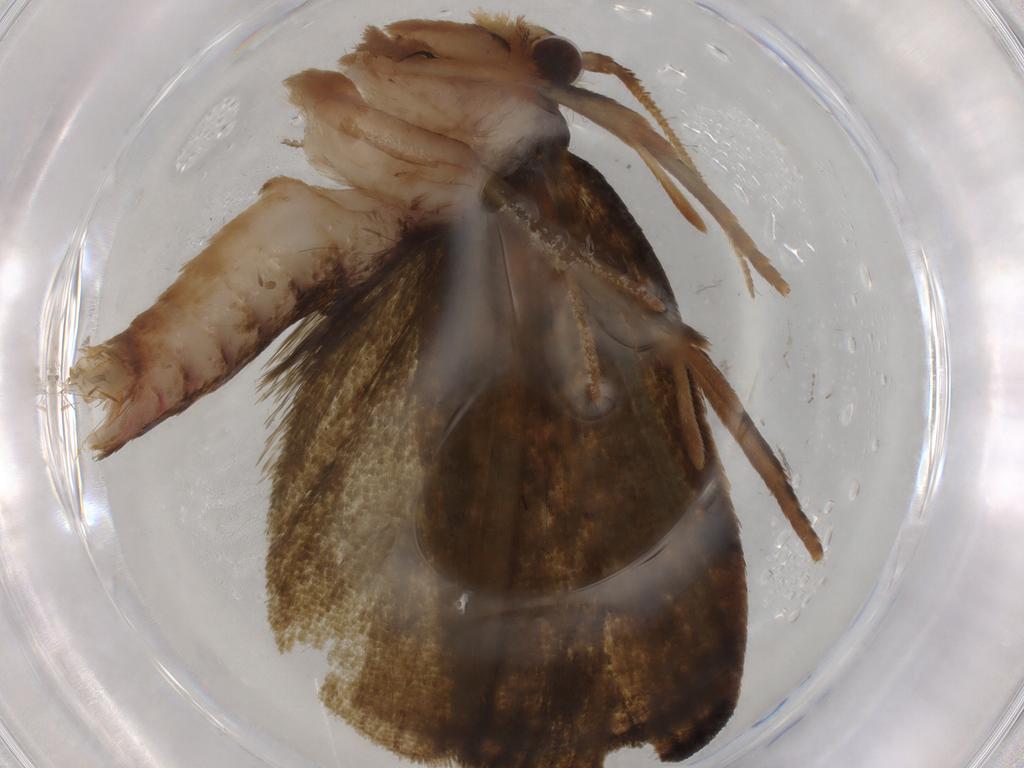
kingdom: Animalia
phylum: Arthropoda
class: Insecta
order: Lepidoptera
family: Geometridae
